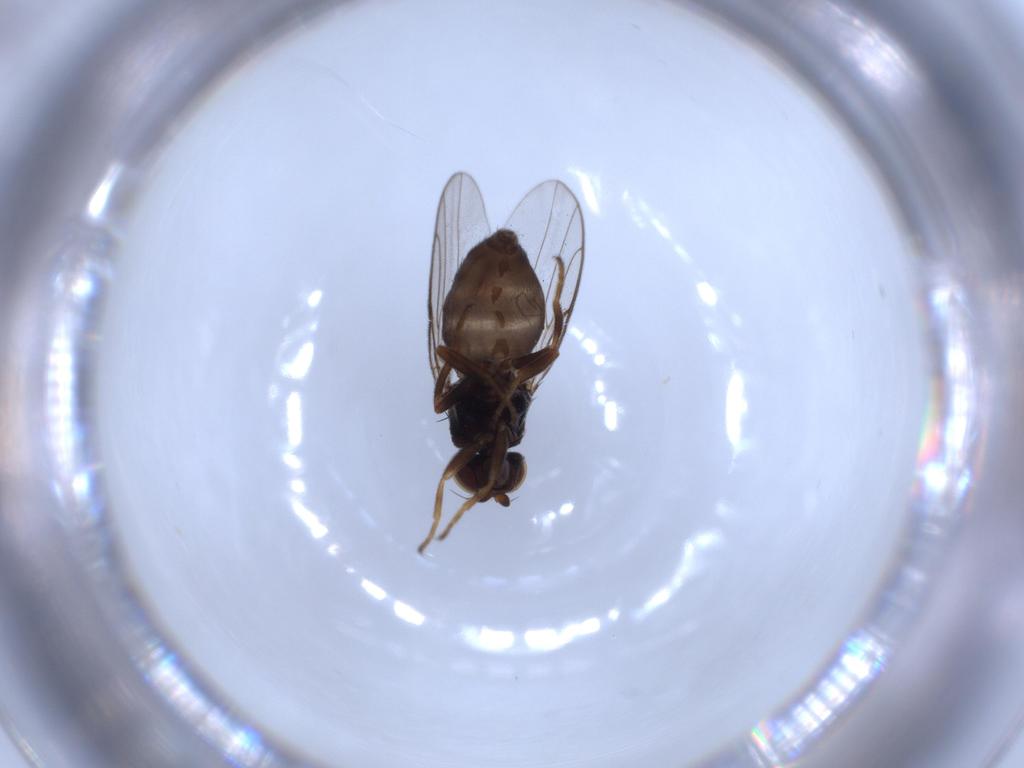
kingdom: Animalia
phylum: Arthropoda
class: Insecta
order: Diptera
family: Chloropidae
